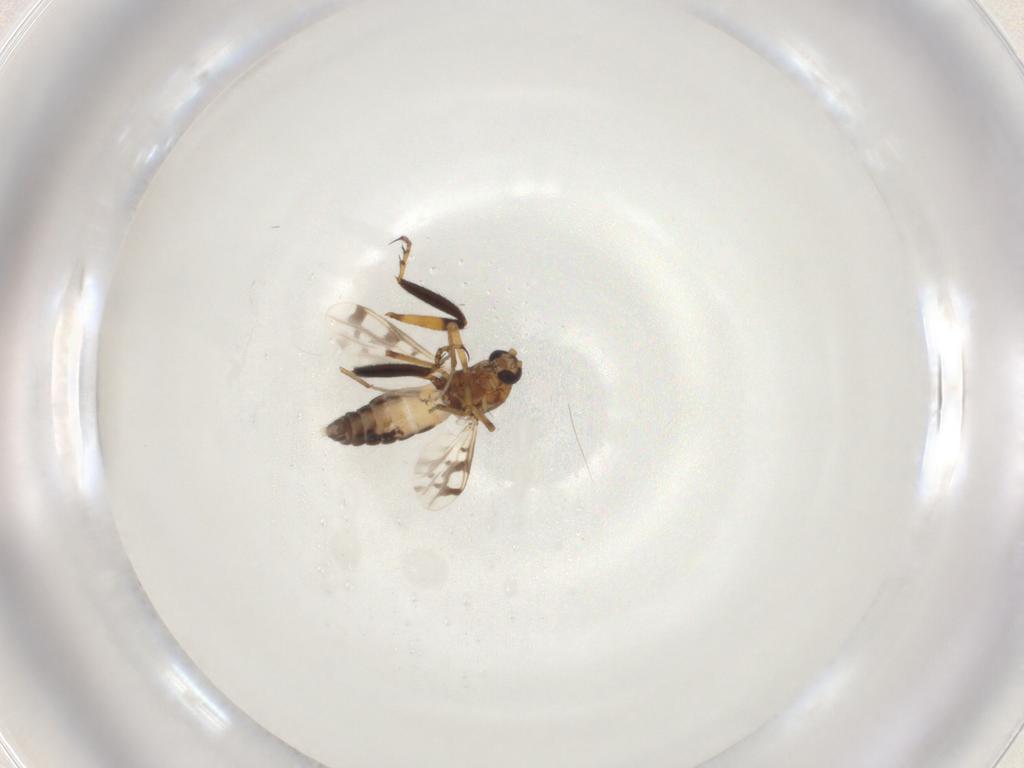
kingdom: Animalia
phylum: Arthropoda
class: Insecta
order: Diptera
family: Ceratopogonidae
